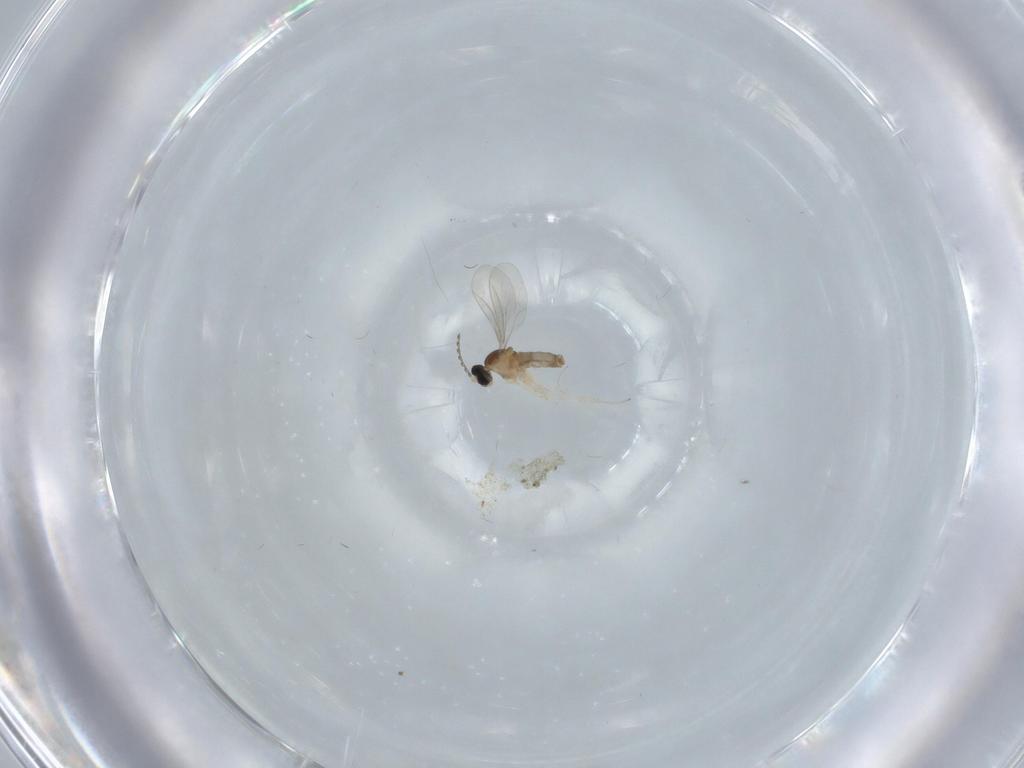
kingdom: Animalia
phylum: Arthropoda
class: Insecta
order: Diptera
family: Cecidomyiidae
